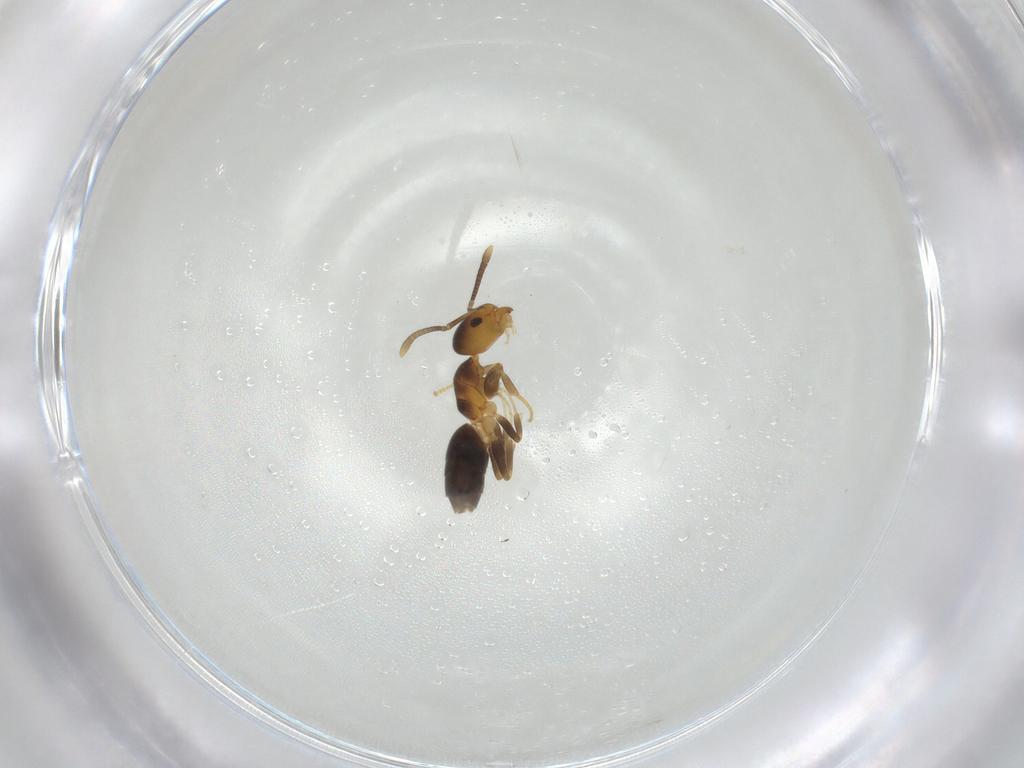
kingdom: Animalia
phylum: Arthropoda
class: Insecta
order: Hymenoptera
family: Formicidae
